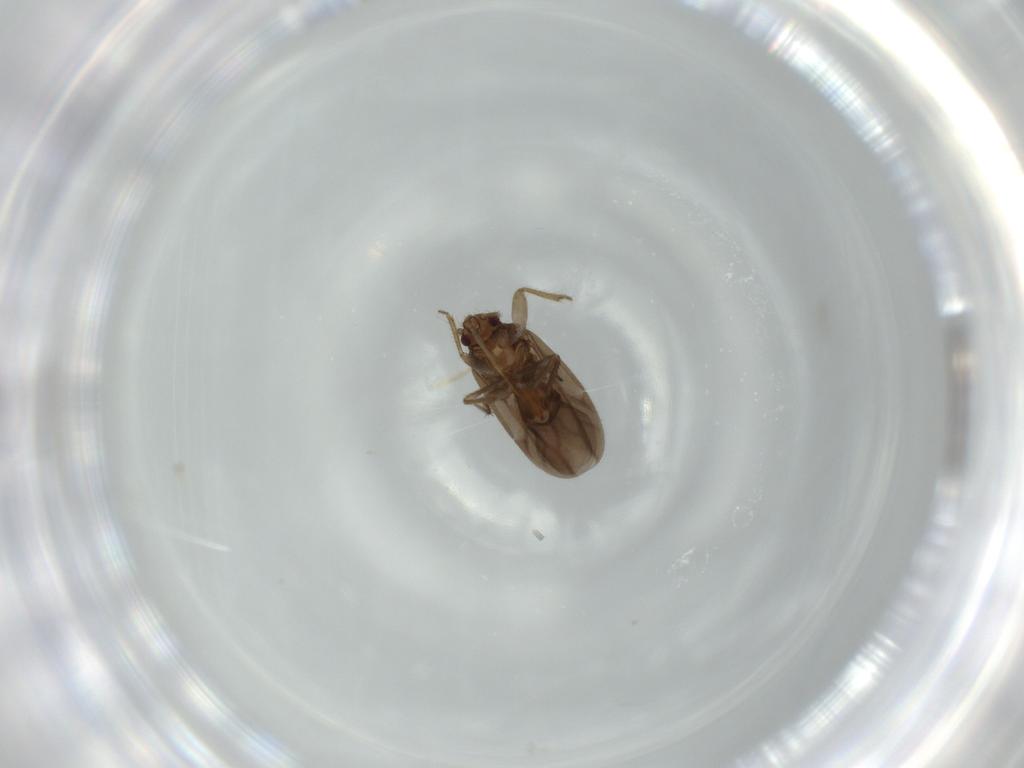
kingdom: Animalia
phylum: Arthropoda
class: Insecta
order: Hemiptera
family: Ceratocombidae
